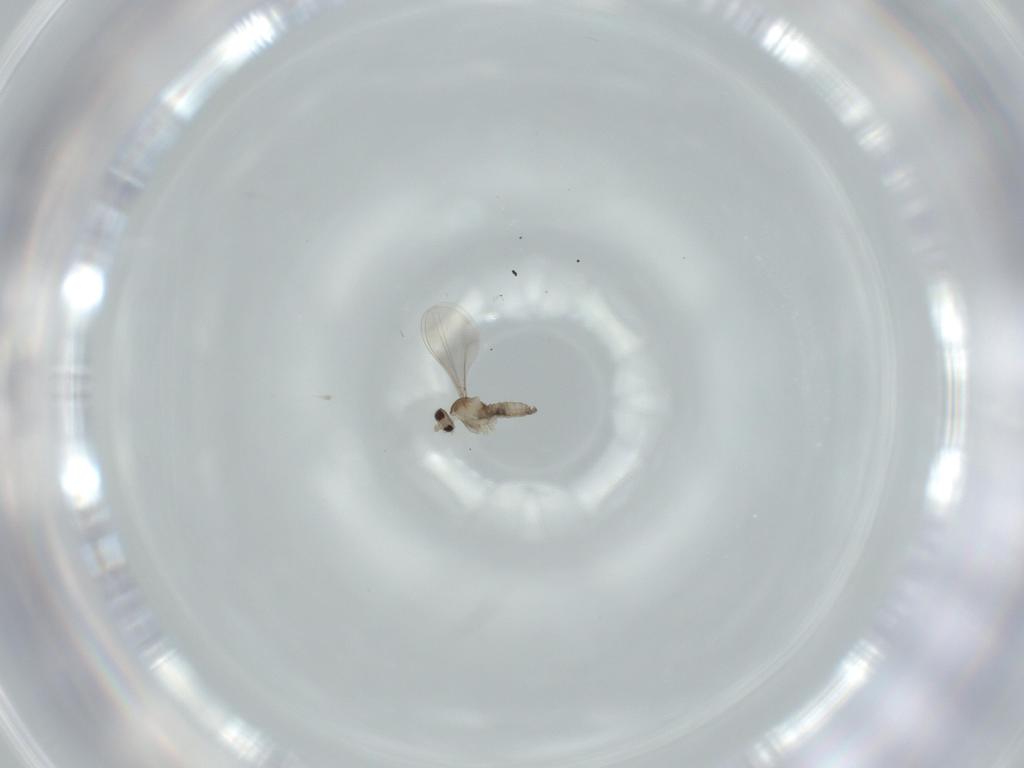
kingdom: Animalia
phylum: Arthropoda
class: Insecta
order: Diptera
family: Cecidomyiidae
